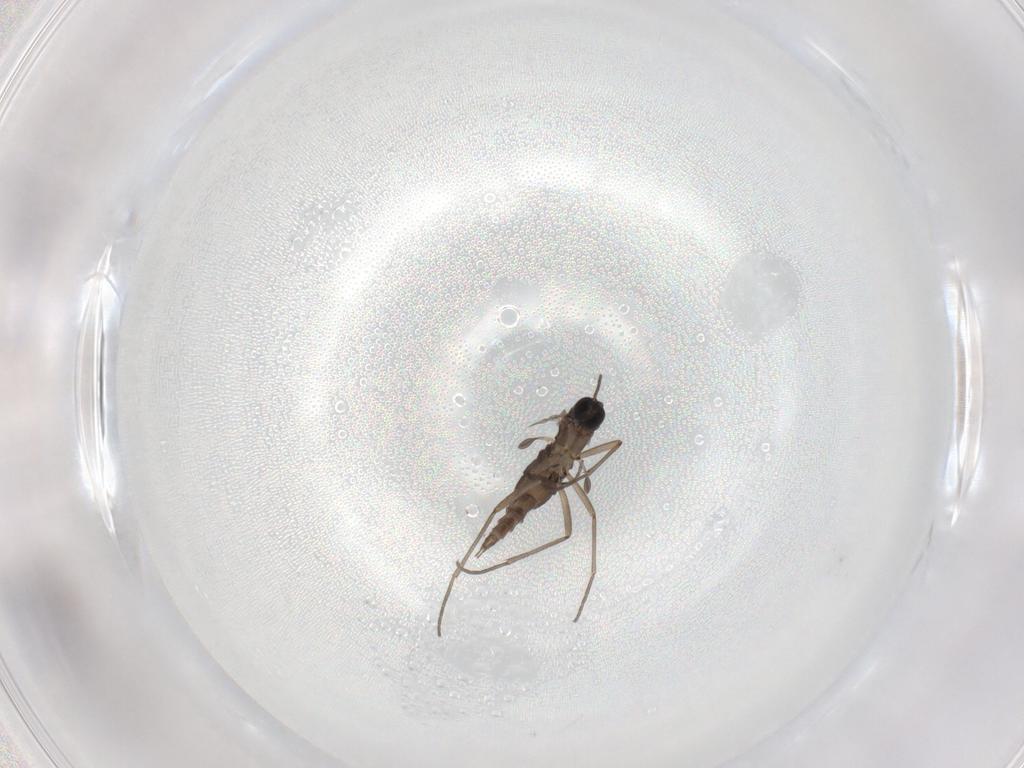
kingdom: Animalia
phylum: Arthropoda
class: Insecta
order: Diptera
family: Sciaridae
